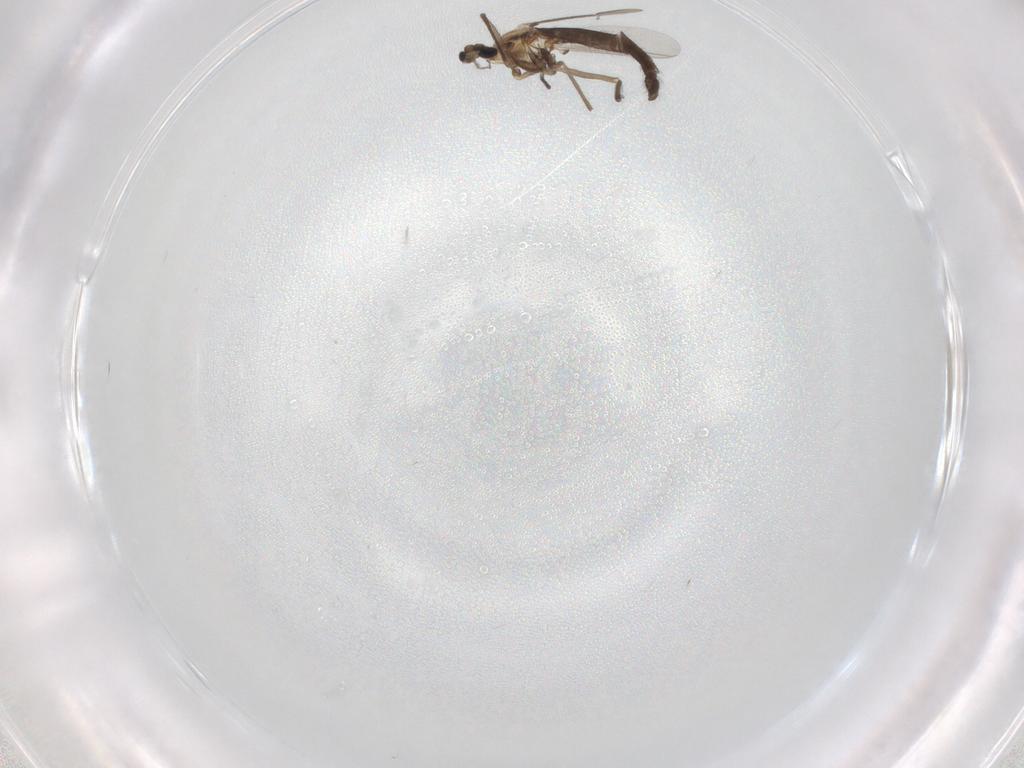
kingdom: Animalia
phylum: Arthropoda
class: Insecta
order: Diptera
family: Chironomidae
